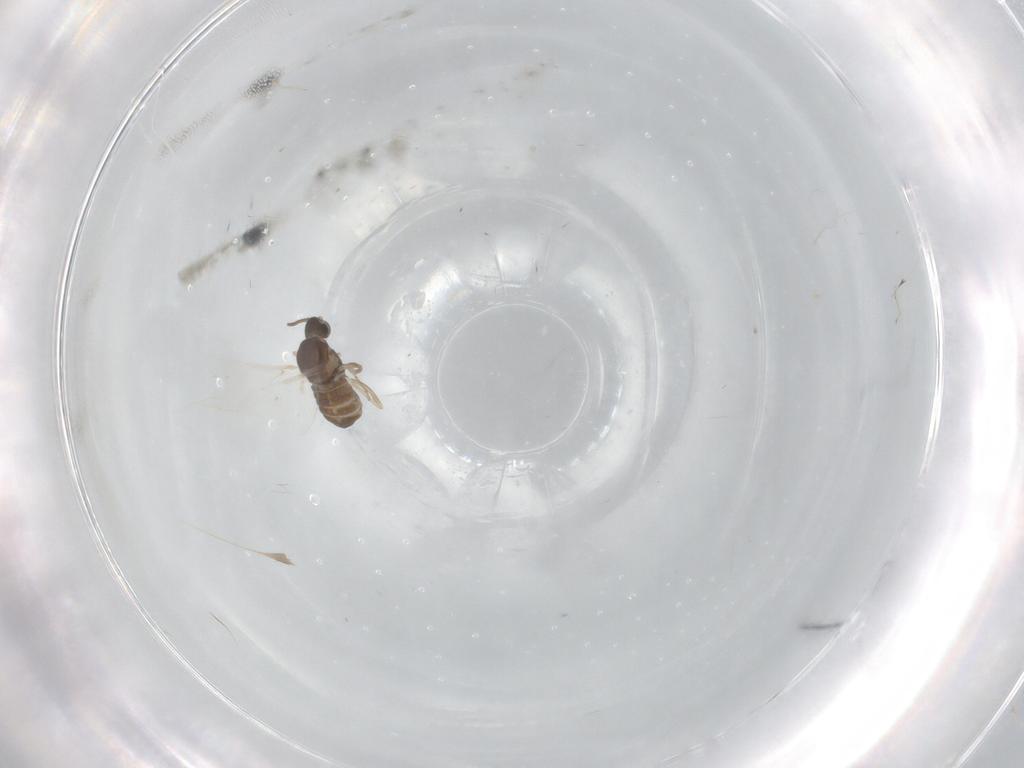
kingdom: Animalia
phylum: Arthropoda
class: Insecta
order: Diptera
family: Cecidomyiidae
